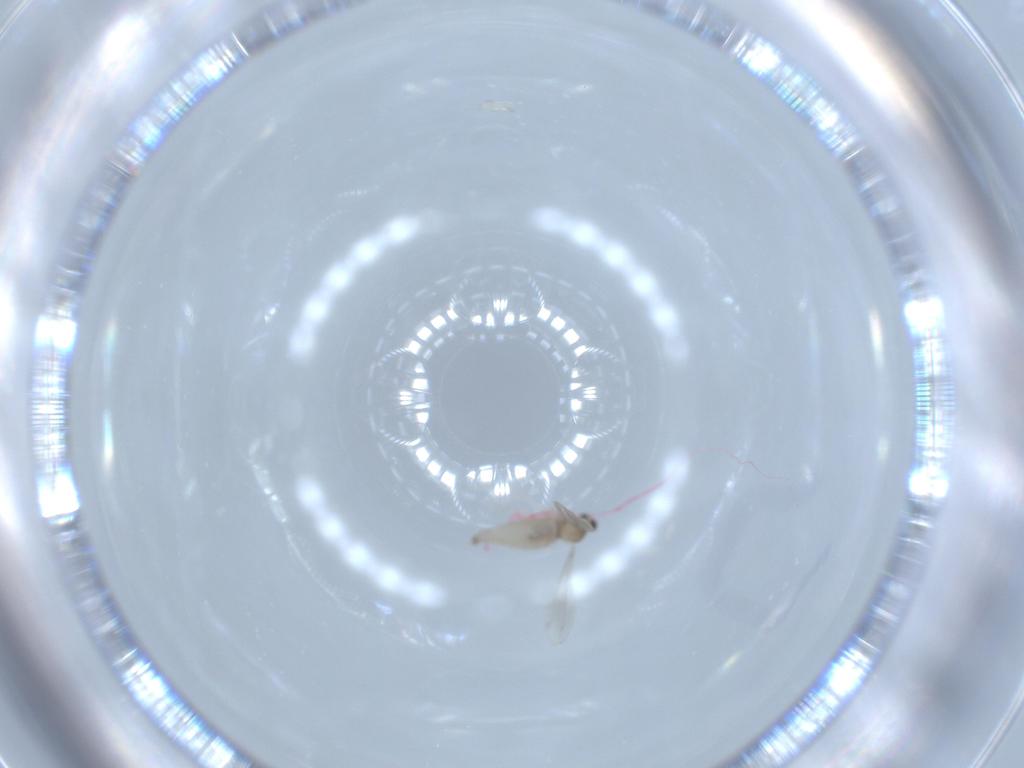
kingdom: Animalia
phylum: Arthropoda
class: Insecta
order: Diptera
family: Cecidomyiidae
